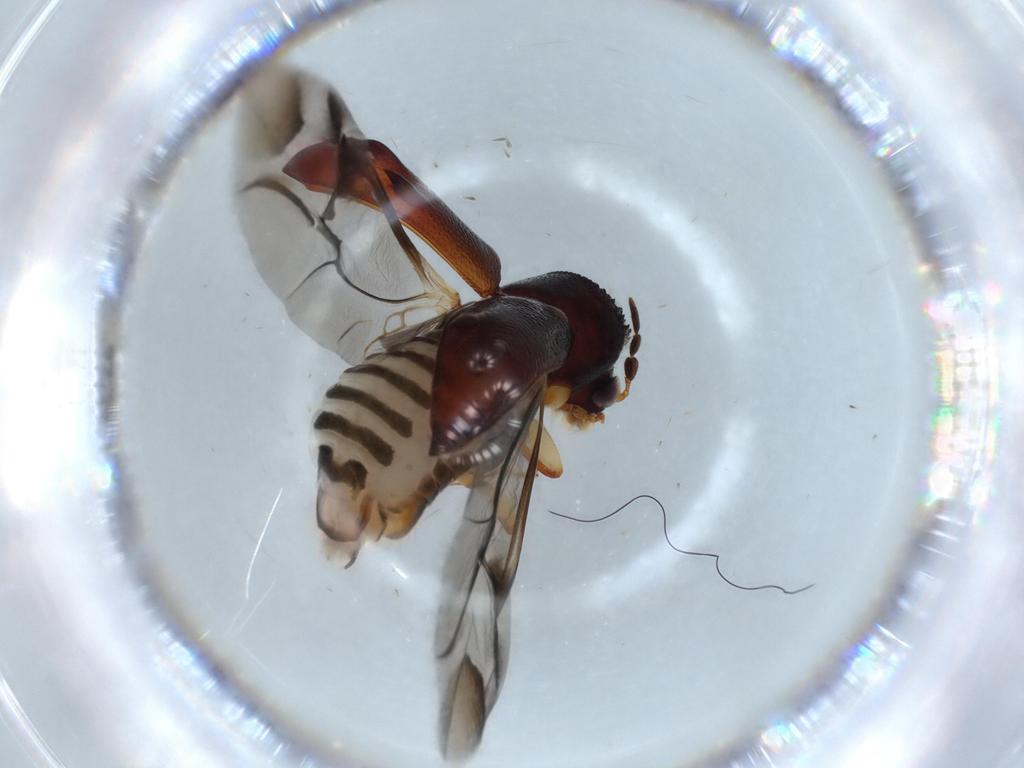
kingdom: Animalia
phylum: Arthropoda
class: Insecta
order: Coleoptera
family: Bostrichidae
